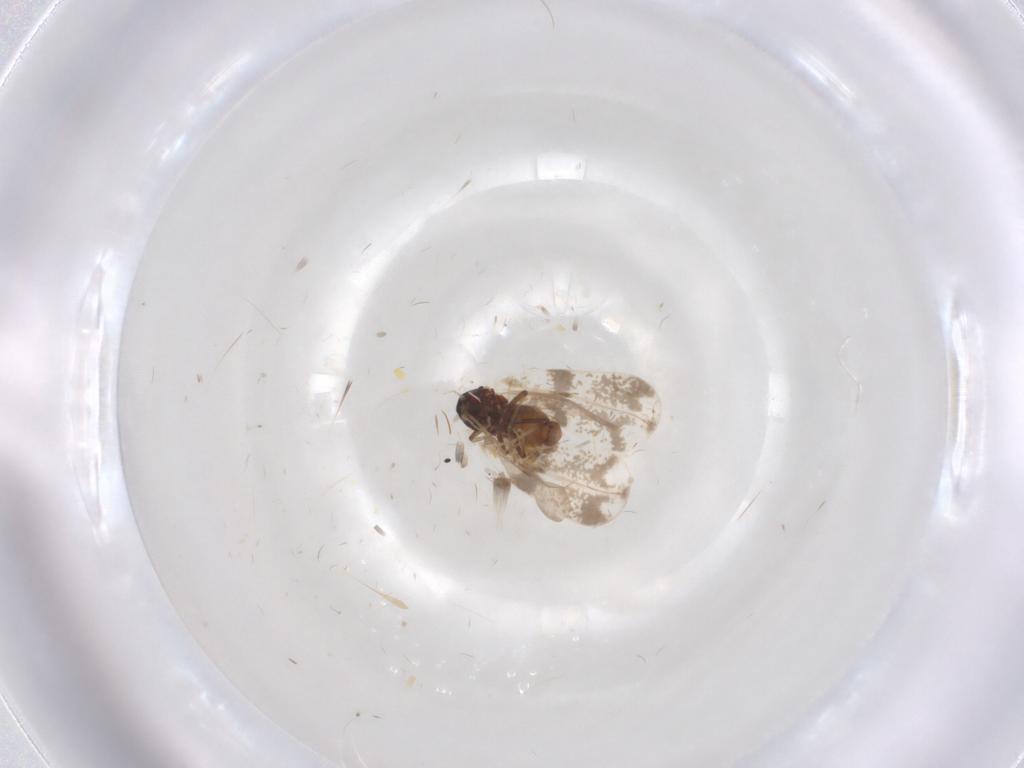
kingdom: Animalia
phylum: Arthropoda
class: Insecta
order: Hemiptera
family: Aleyrodidae
